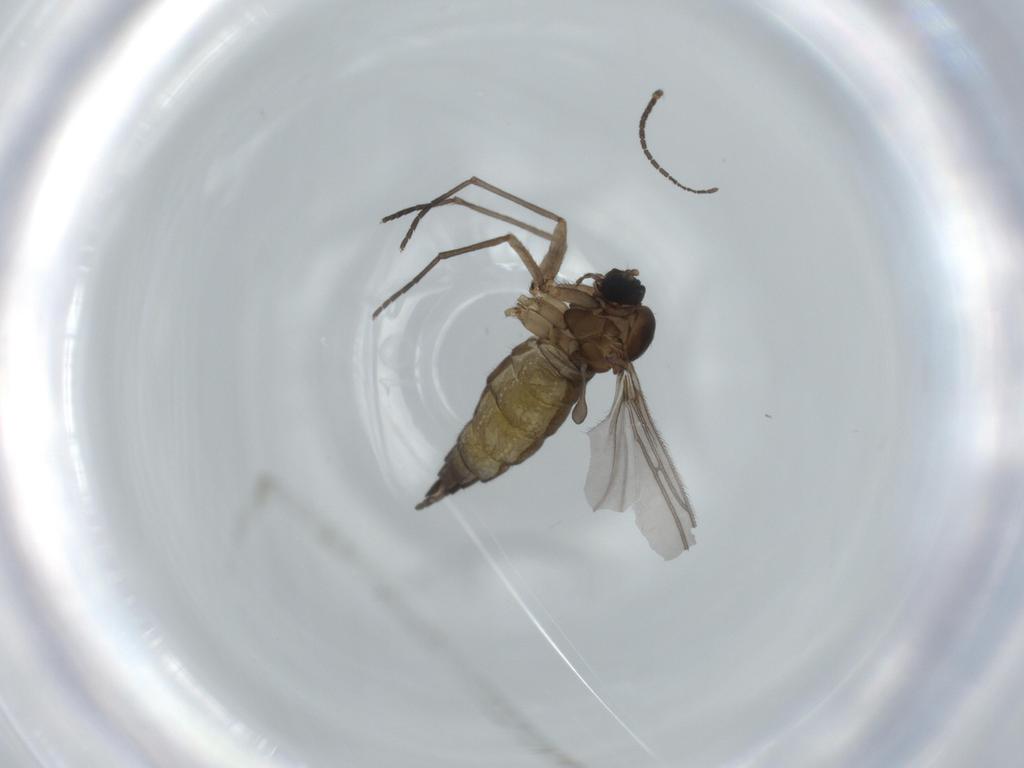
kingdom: Animalia
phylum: Arthropoda
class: Insecta
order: Diptera
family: Sciaridae
